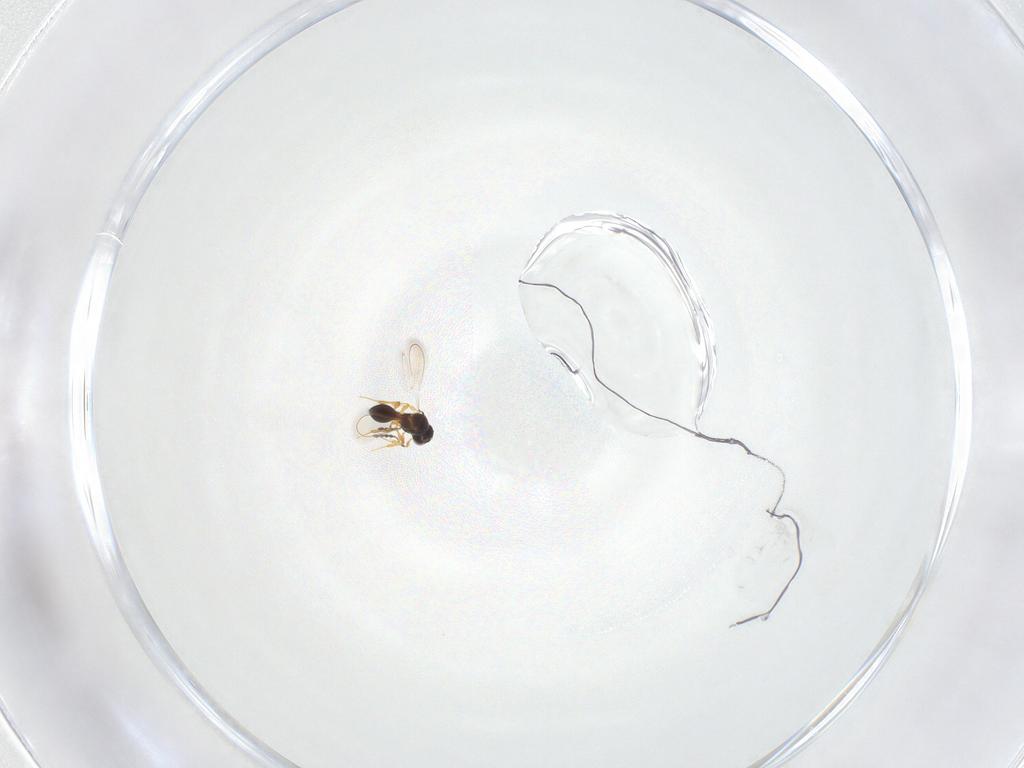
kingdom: Animalia
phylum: Arthropoda
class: Insecta
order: Hymenoptera
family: Platygastridae
